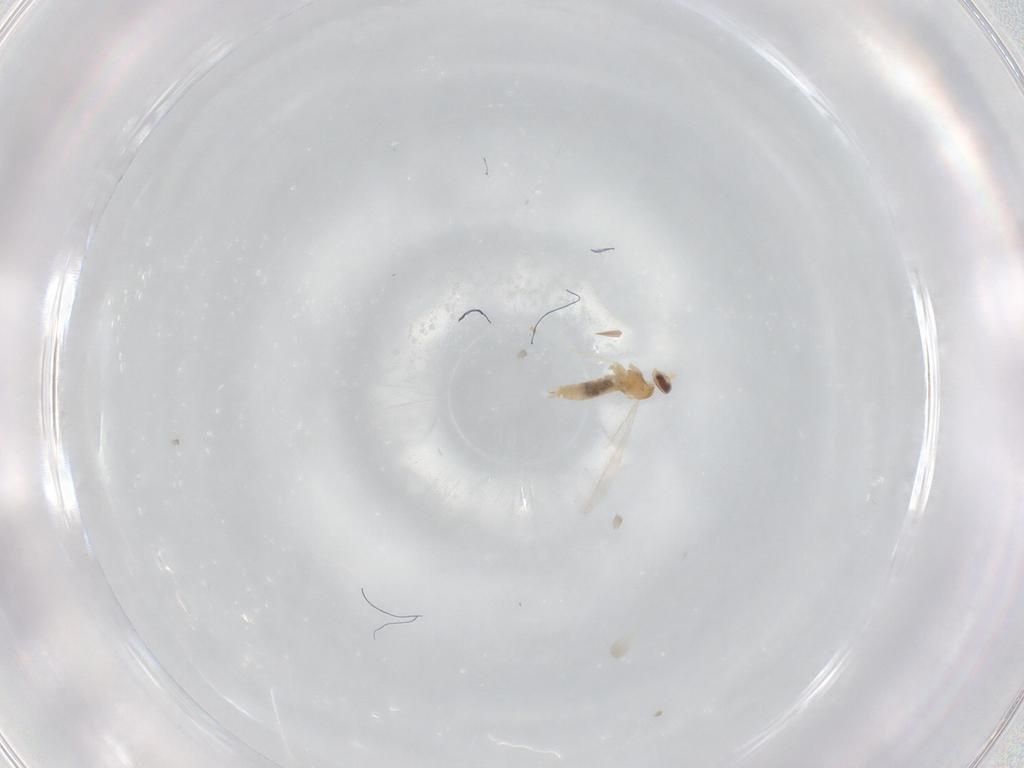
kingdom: Animalia
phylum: Arthropoda
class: Insecta
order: Diptera
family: Cecidomyiidae
